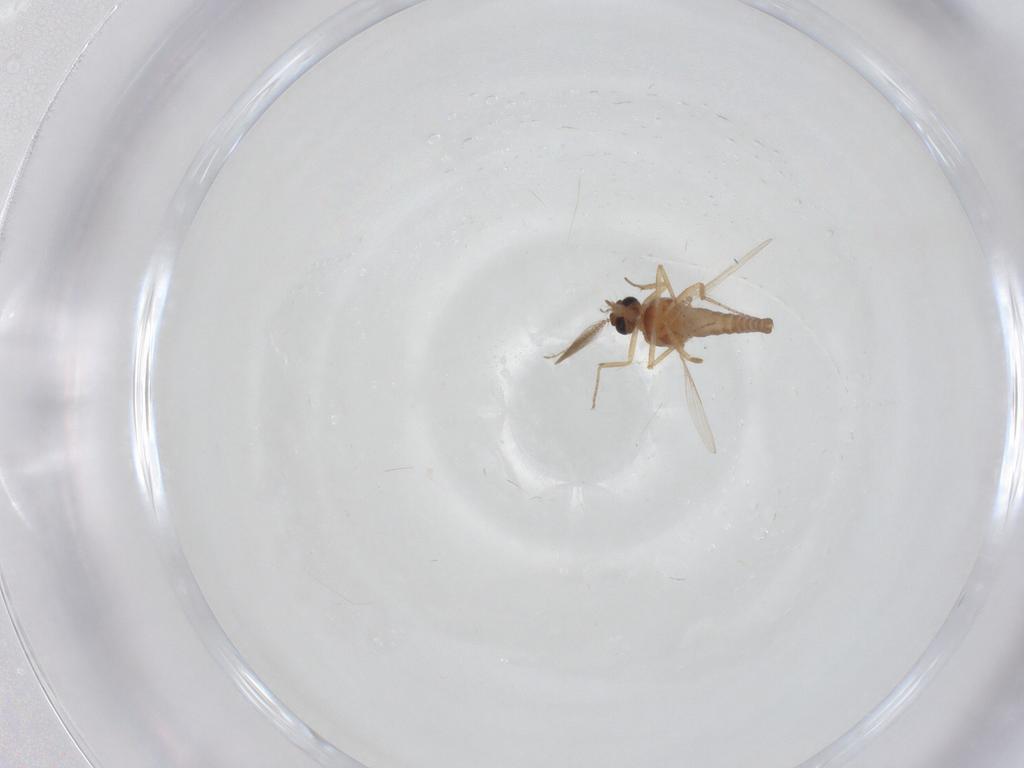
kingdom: Animalia
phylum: Arthropoda
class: Insecta
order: Diptera
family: Ceratopogonidae
